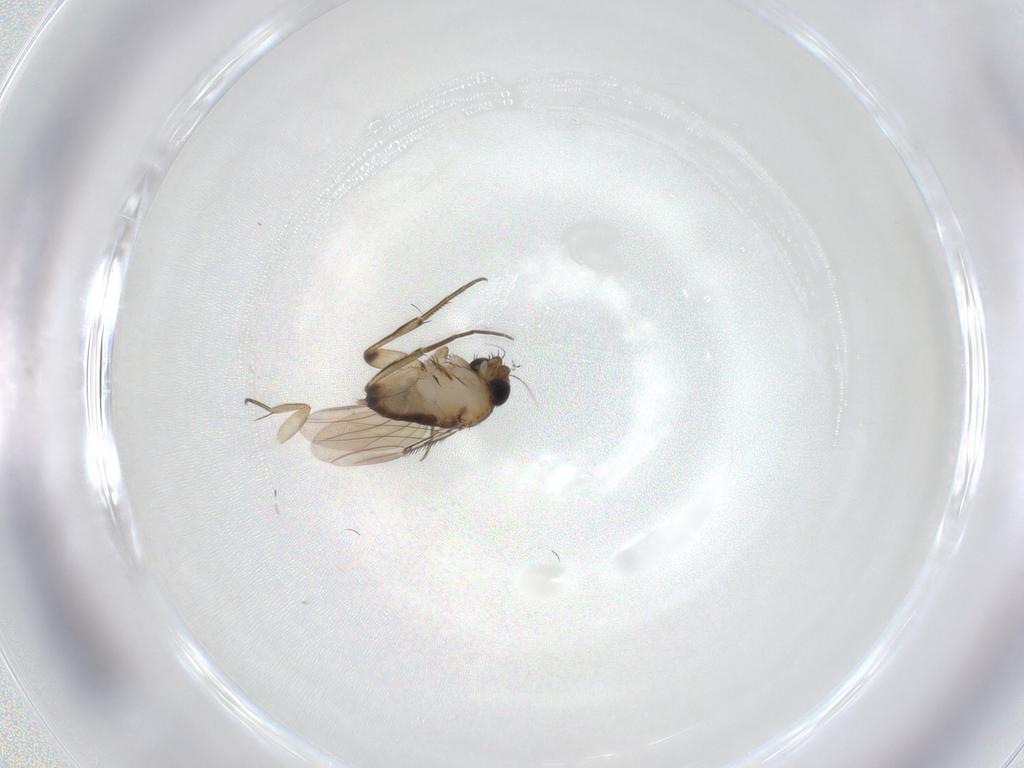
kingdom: Animalia
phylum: Arthropoda
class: Insecta
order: Diptera
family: Phoridae
